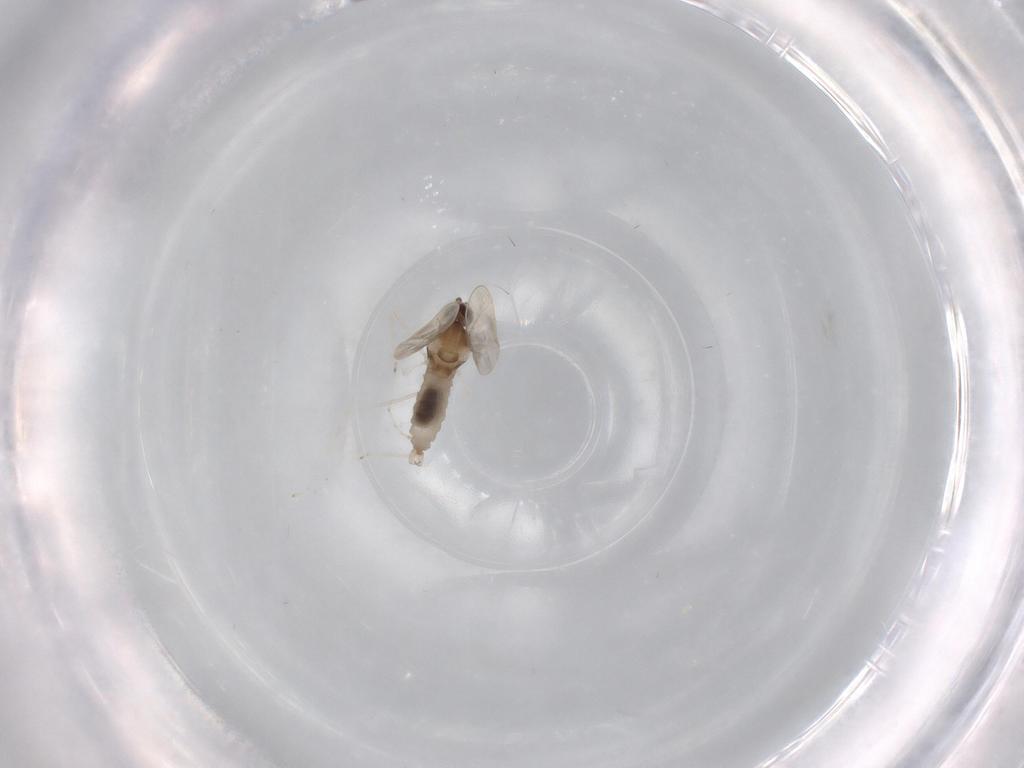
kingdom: Animalia
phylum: Arthropoda
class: Insecta
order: Diptera
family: Cecidomyiidae
